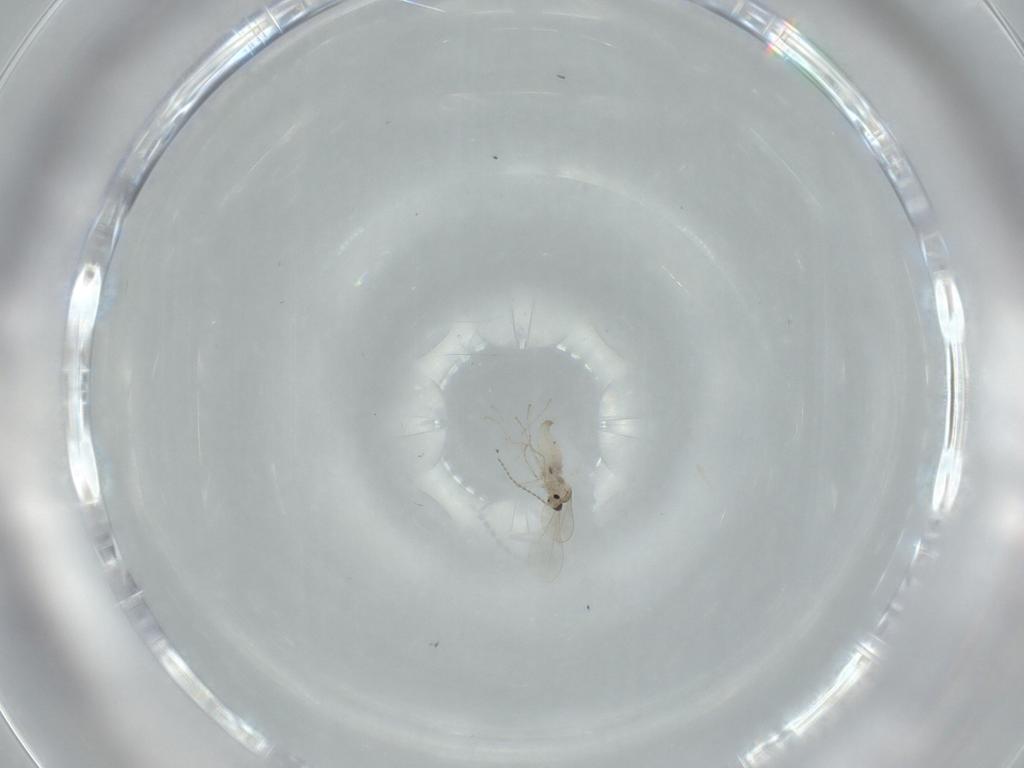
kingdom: Animalia
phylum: Arthropoda
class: Insecta
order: Diptera
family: Cecidomyiidae
